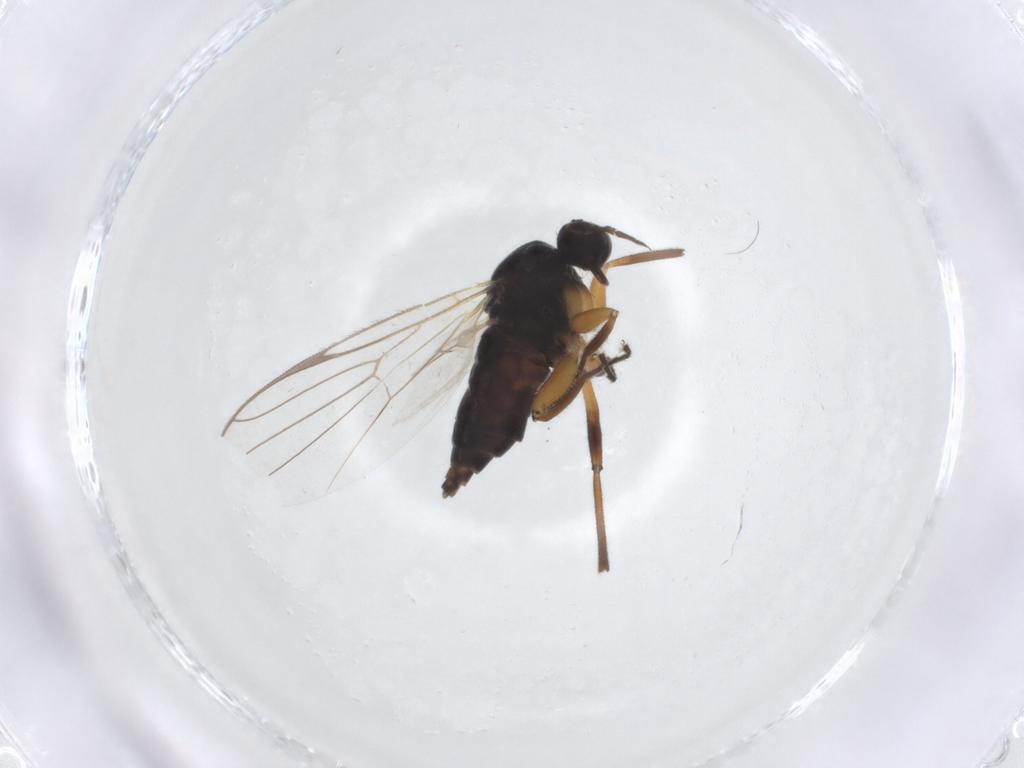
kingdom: Animalia
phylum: Arthropoda
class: Insecta
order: Diptera
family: Hybotidae
